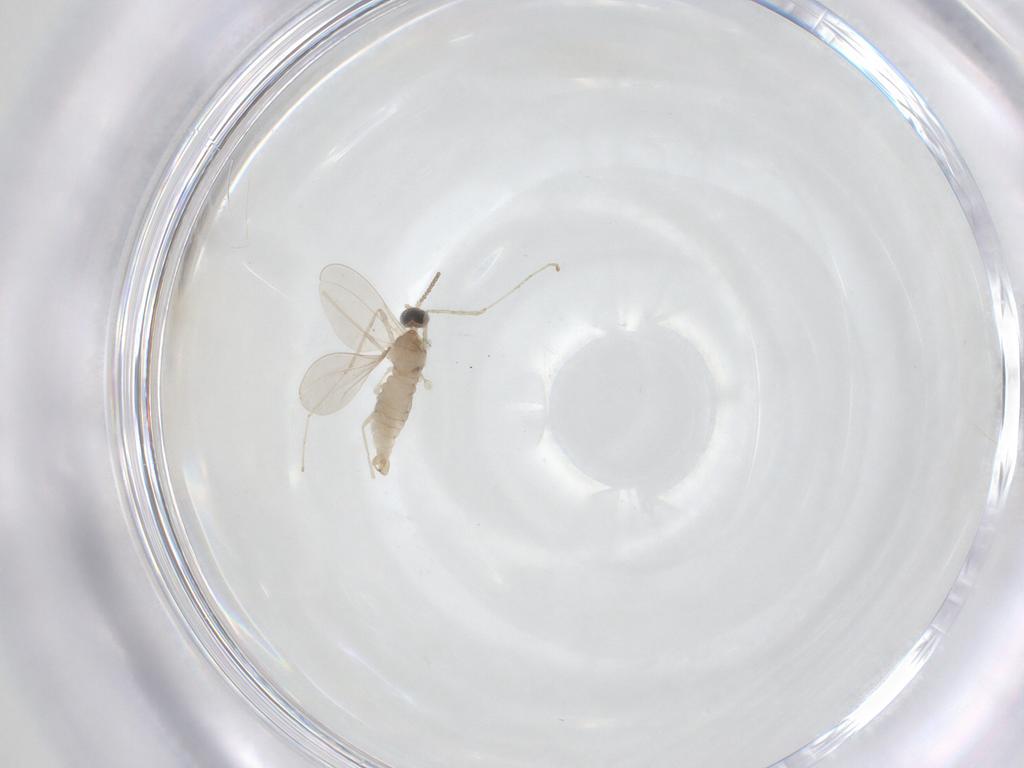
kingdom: Animalia
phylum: Arthropoda
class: Insecta
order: Diptera
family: Cecidomyiidae
